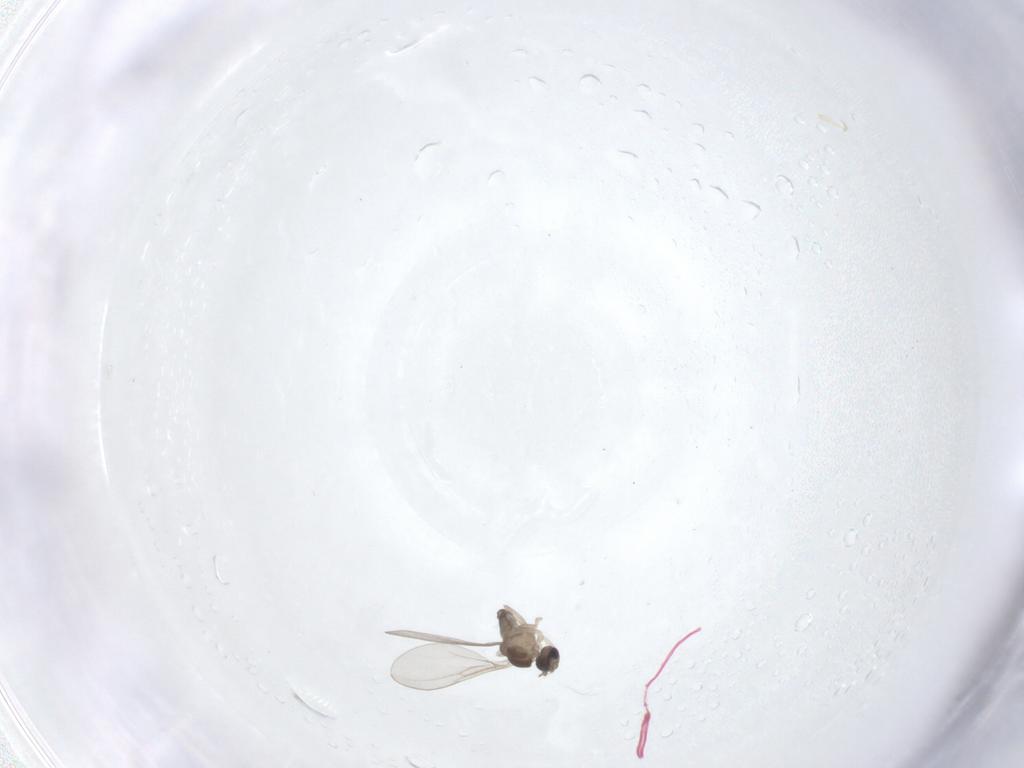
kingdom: Animalia
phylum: Arthropoda
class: Insecta
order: Diptera
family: Cecidomyiidae
